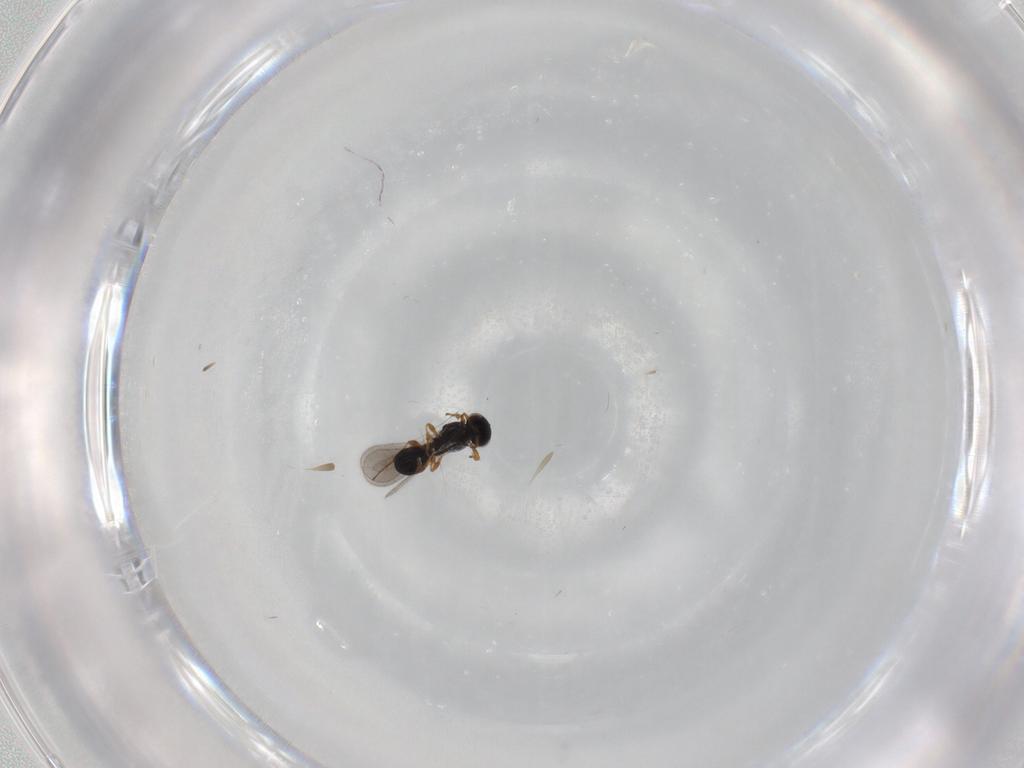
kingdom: Animalia
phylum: Arthropoda
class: Insecta
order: Hymenoptera
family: Platygastridae
